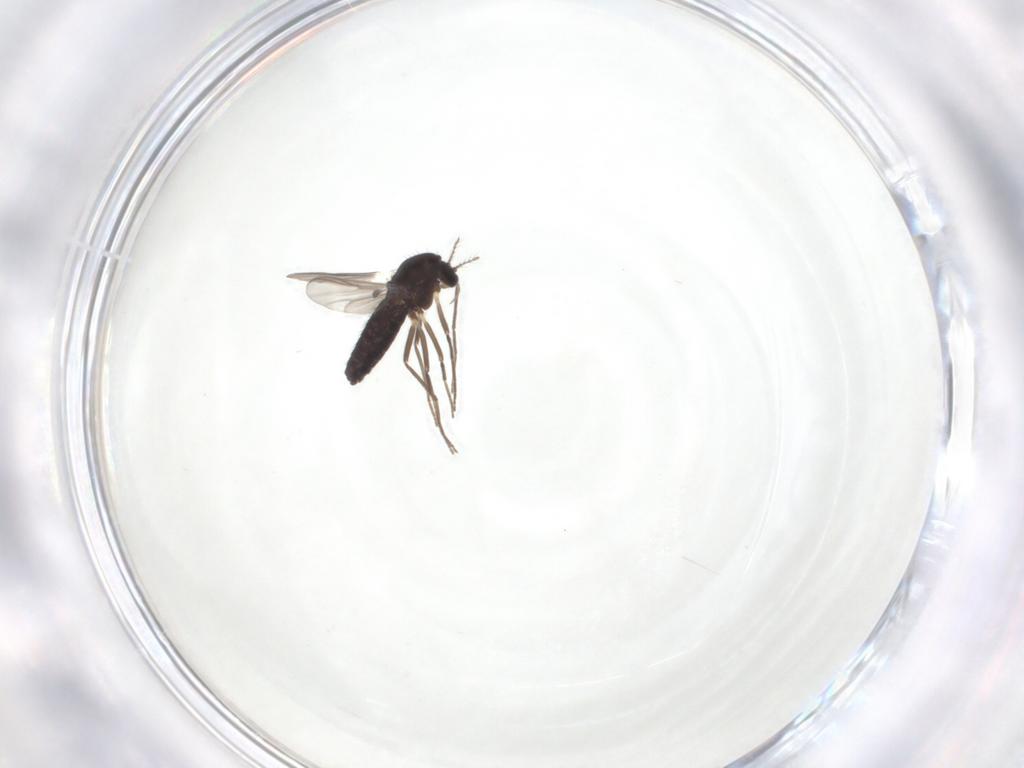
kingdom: Animalia
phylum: Arthropoda
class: Insecta
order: Diptera
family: Chironomidae
